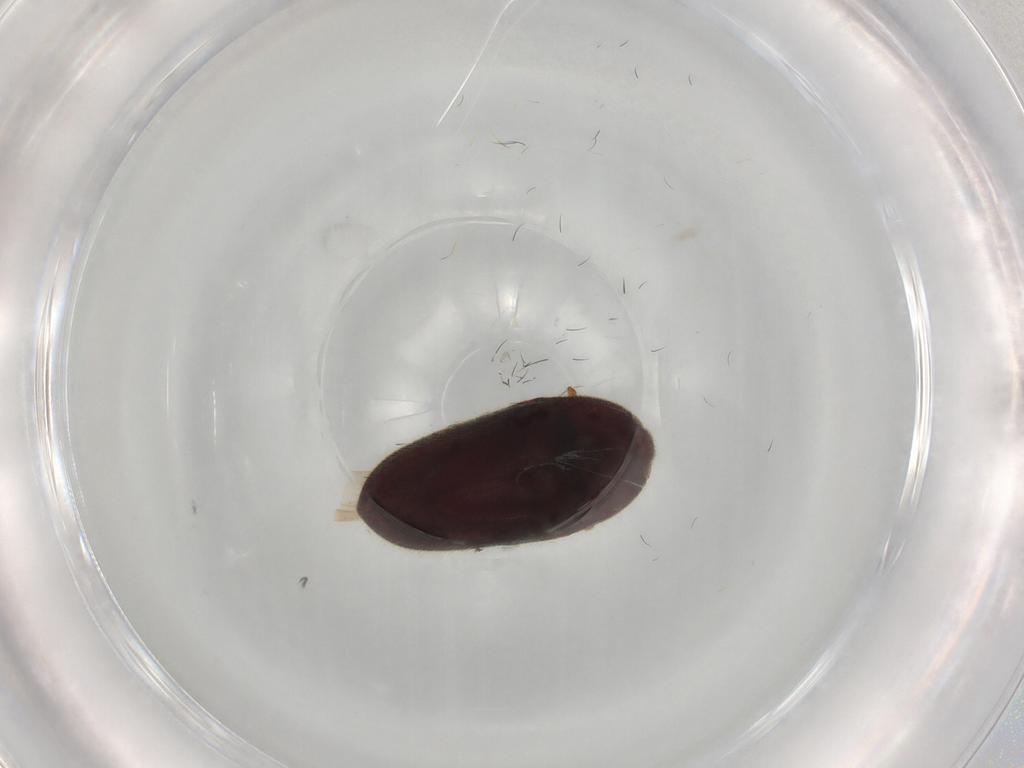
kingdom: Animalia
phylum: Arthropoda
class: Insecta
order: Coleoptera
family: Throscidae
